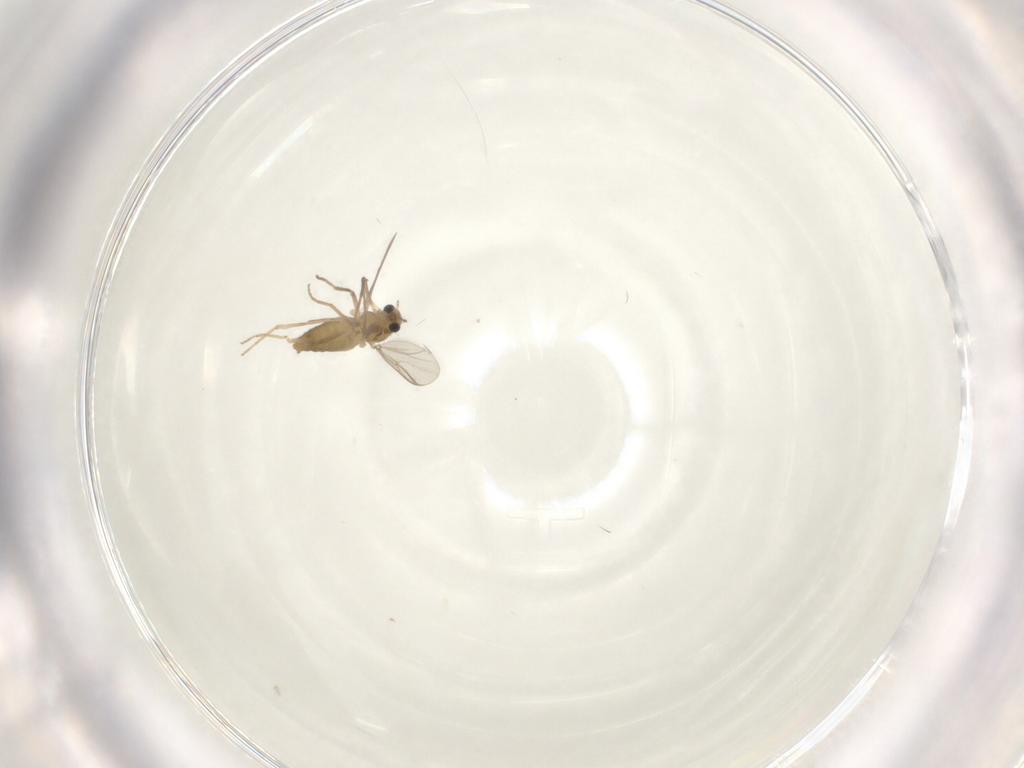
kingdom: Animalia
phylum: Arthropoda
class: Insecta
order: Diptera
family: Chironomidae
